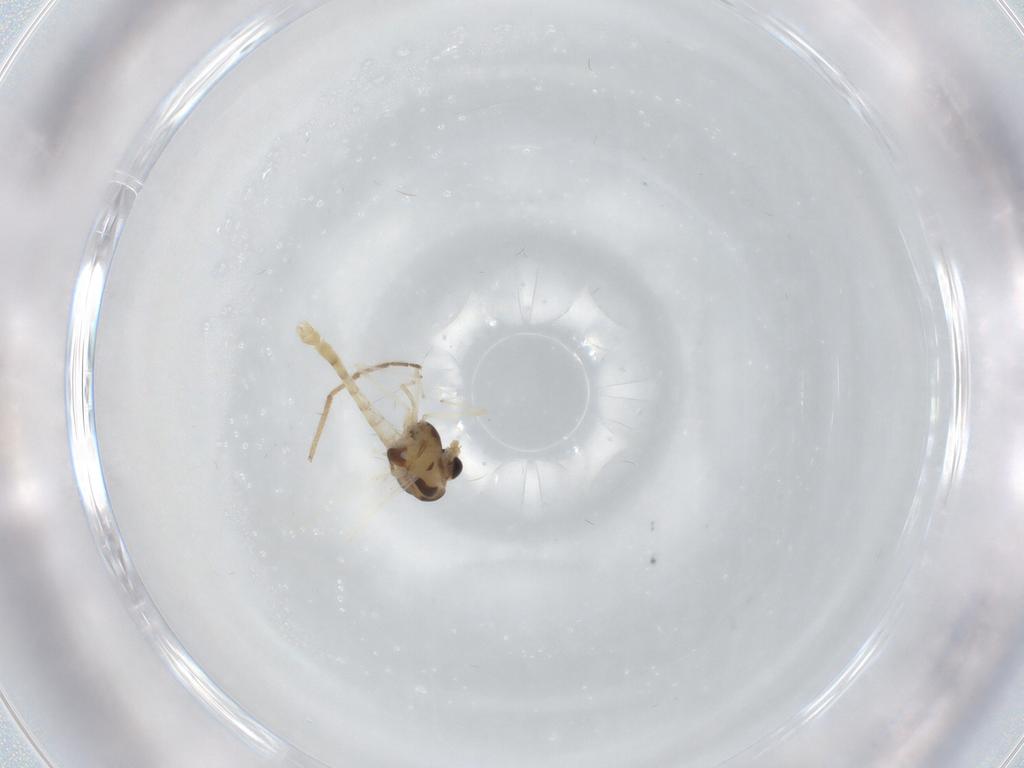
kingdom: Animalia
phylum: Arthropoda
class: Insecta
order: Diptera
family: Chironomidae
